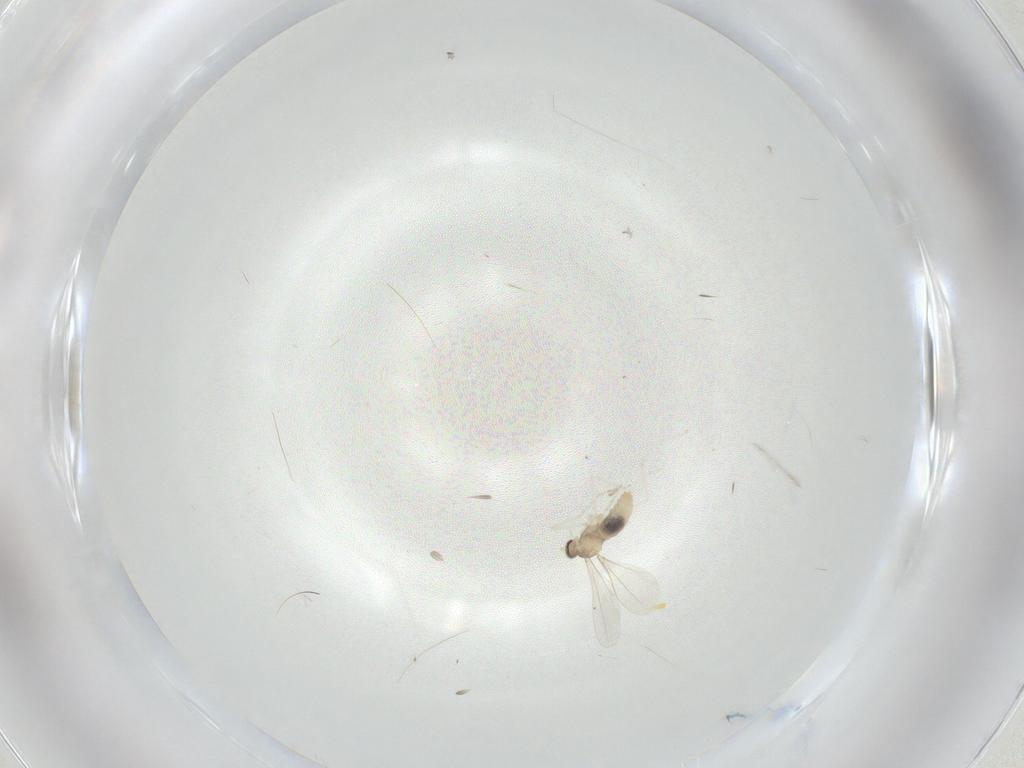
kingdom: Animalia
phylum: Arthropoda
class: Insecta
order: Diptera
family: Cecidomyiidae
